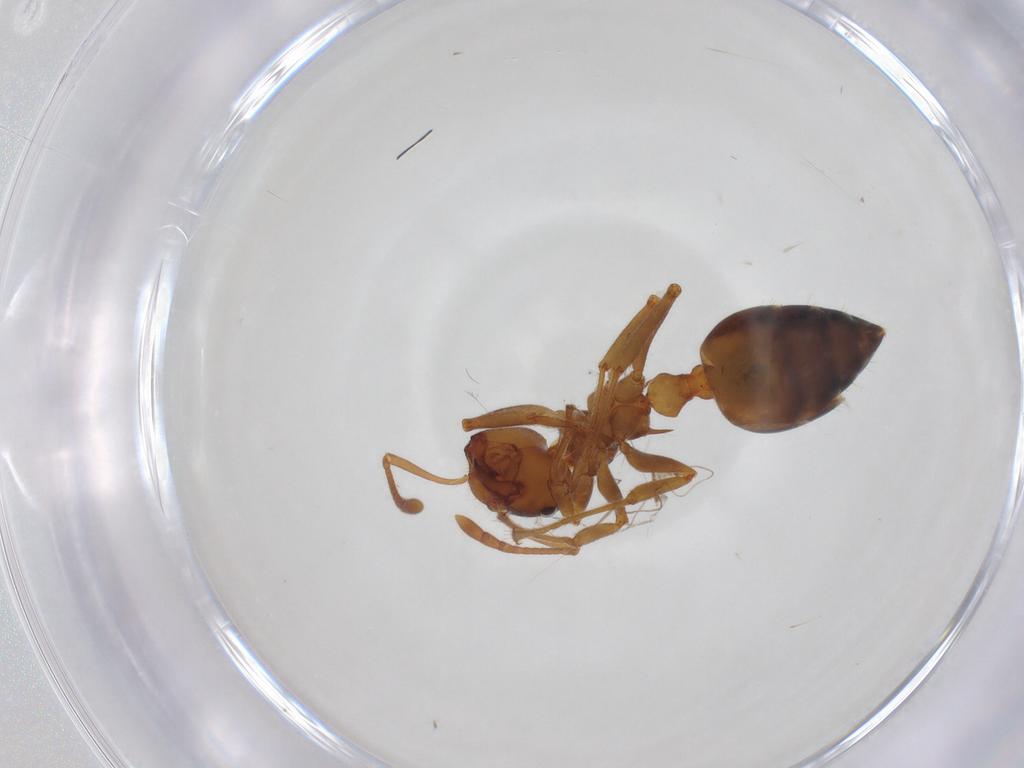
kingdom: Animalia
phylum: Arthropoda
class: Insecta
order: Hymenoptera
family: Formicidae
